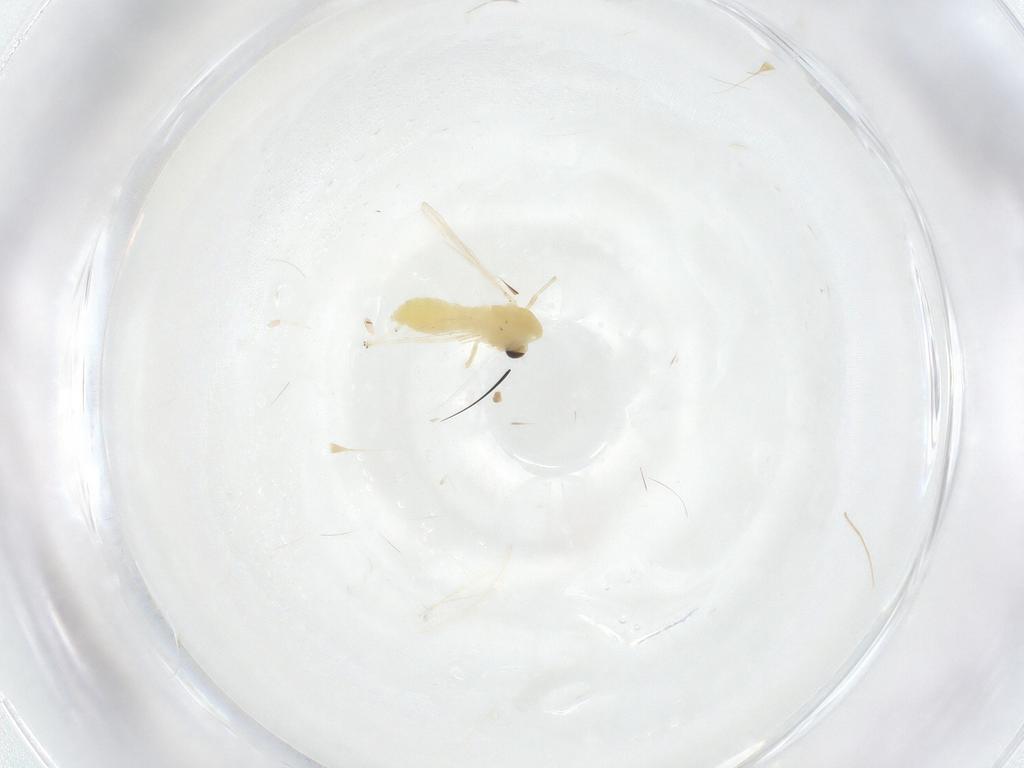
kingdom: Animalia
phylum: Arthropoda
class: Insecta
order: Diptera
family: Chironomidae
